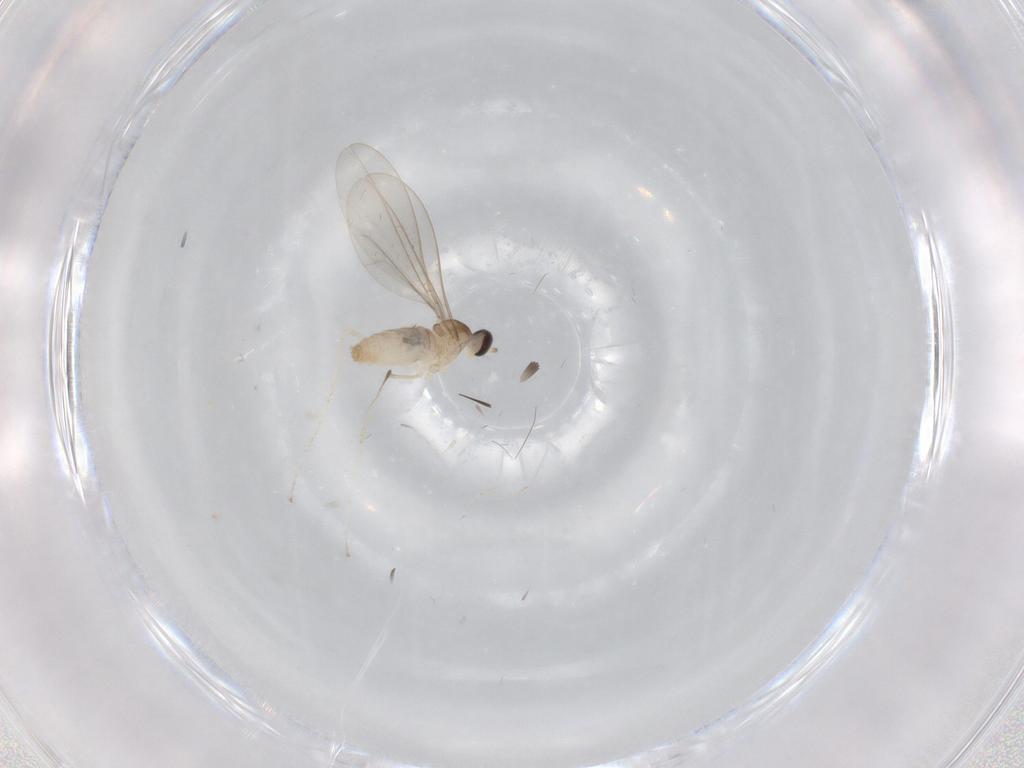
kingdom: Animalia
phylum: Arthropoda
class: Insecta
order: Diptera
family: Cecidomyiidae
